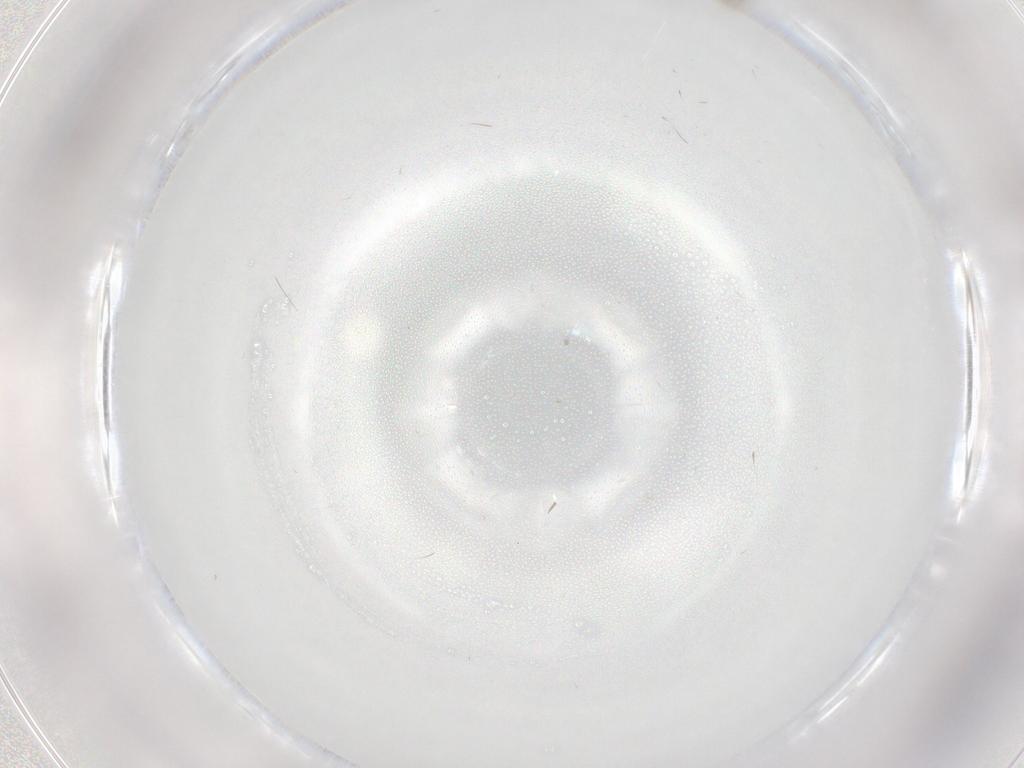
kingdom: Animalia
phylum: Arthropoda
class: Insecta
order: Diptera
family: Cecidomyiidae
